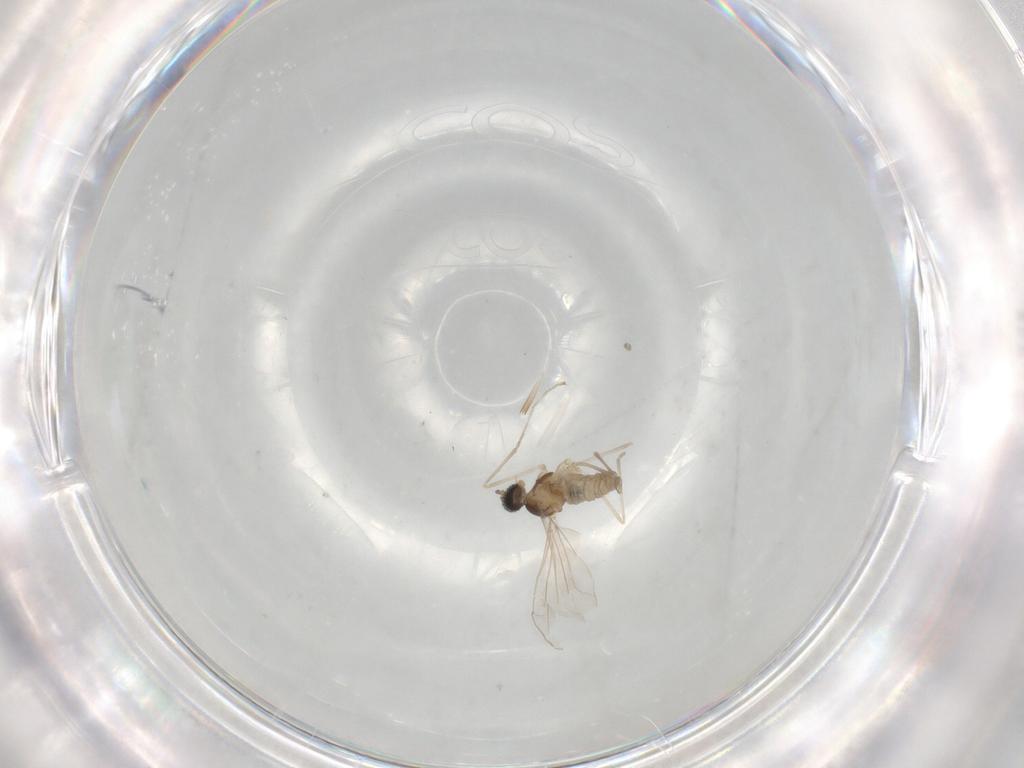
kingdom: Animalia
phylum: Arthropoda
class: Insecta
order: Diptera
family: Cecidomyiidae
